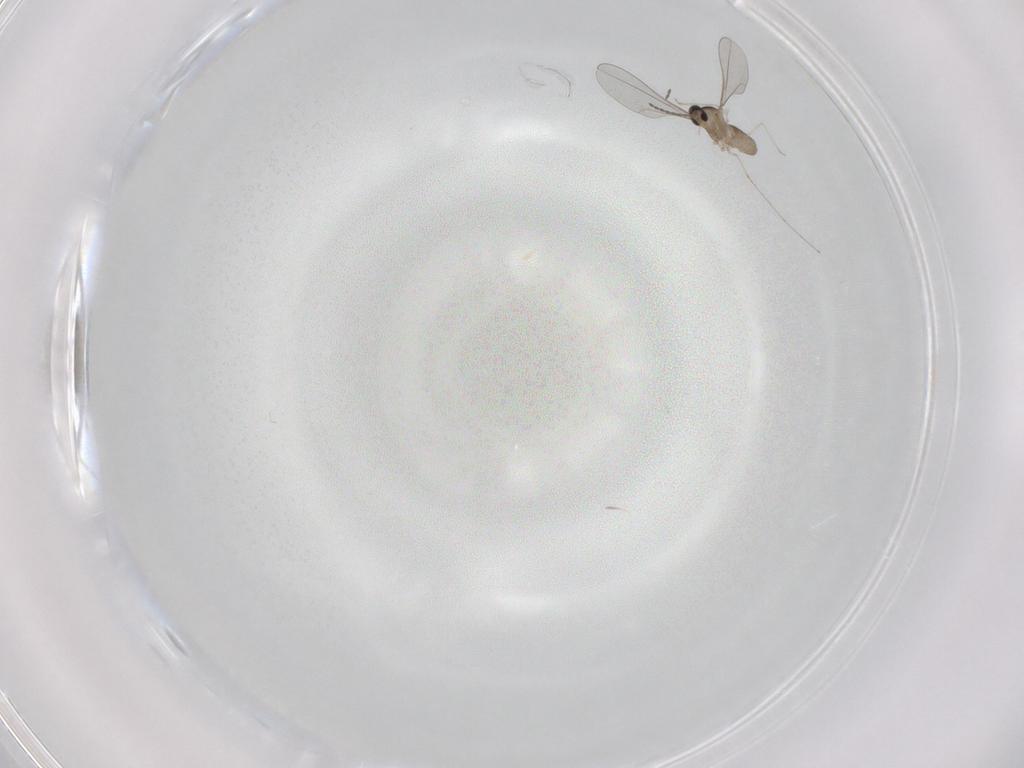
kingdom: Animalia
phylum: Arthropoda
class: Insecta
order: Diptera
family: Cecidomyiidae
